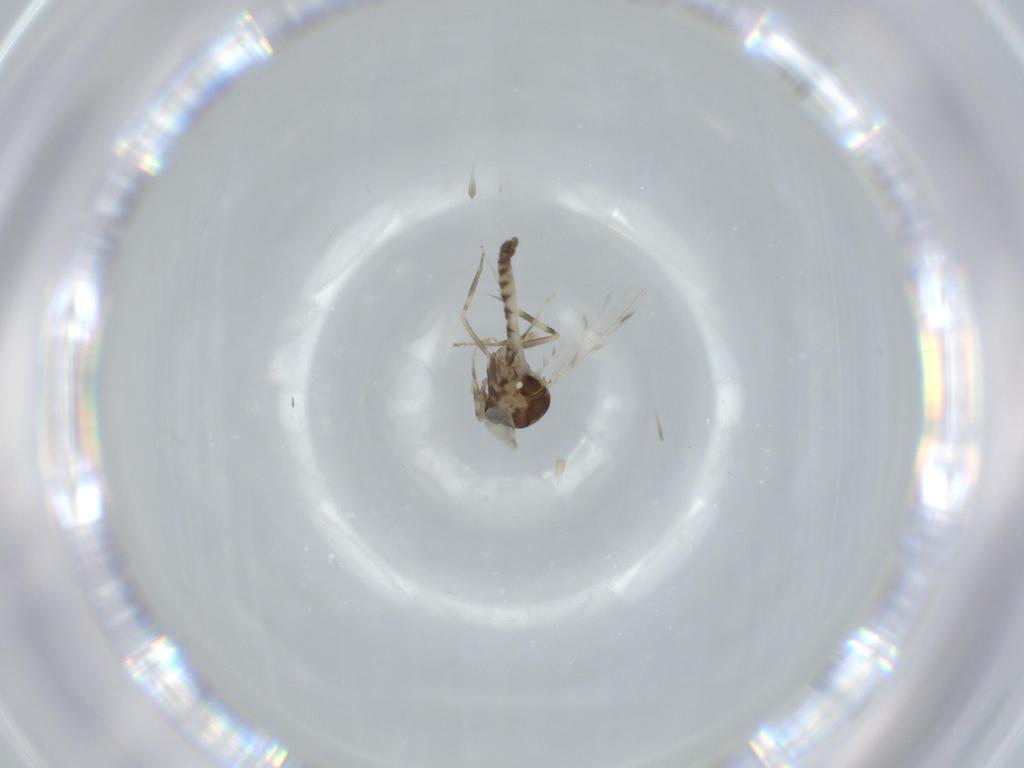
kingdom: Animalia
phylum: Arthropoda
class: Insecta
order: Diptera
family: Ceratopogonidae
